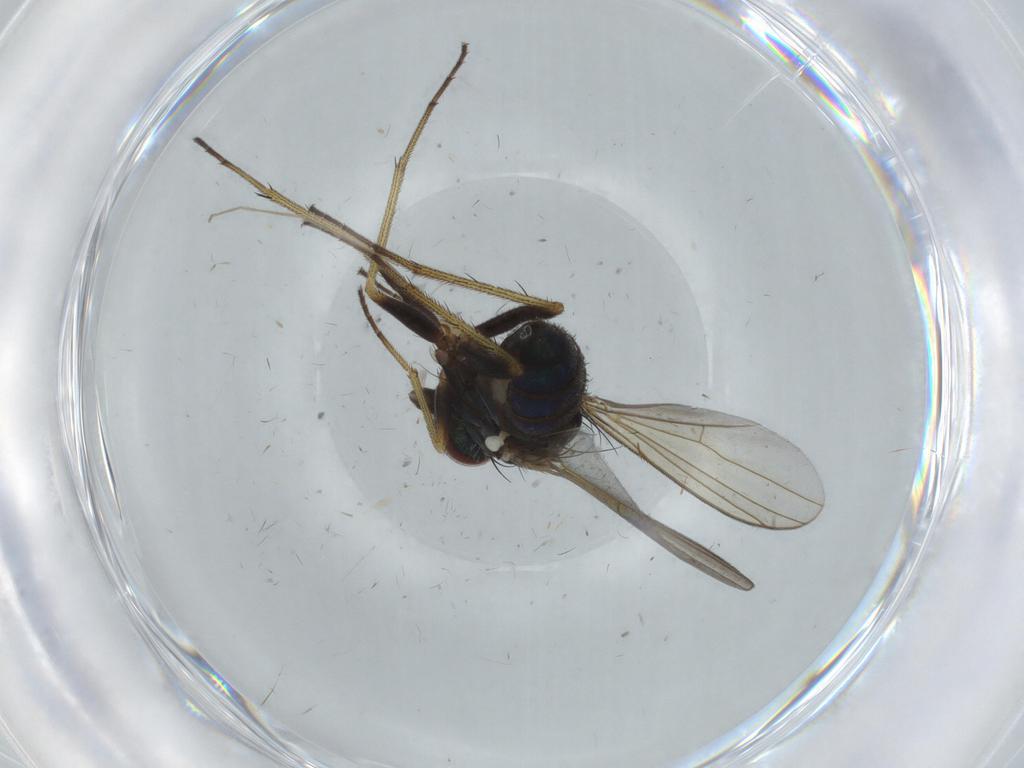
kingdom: Animalia
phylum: Arthropoda
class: Insecta
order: Diptera
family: Dolichopodidae
